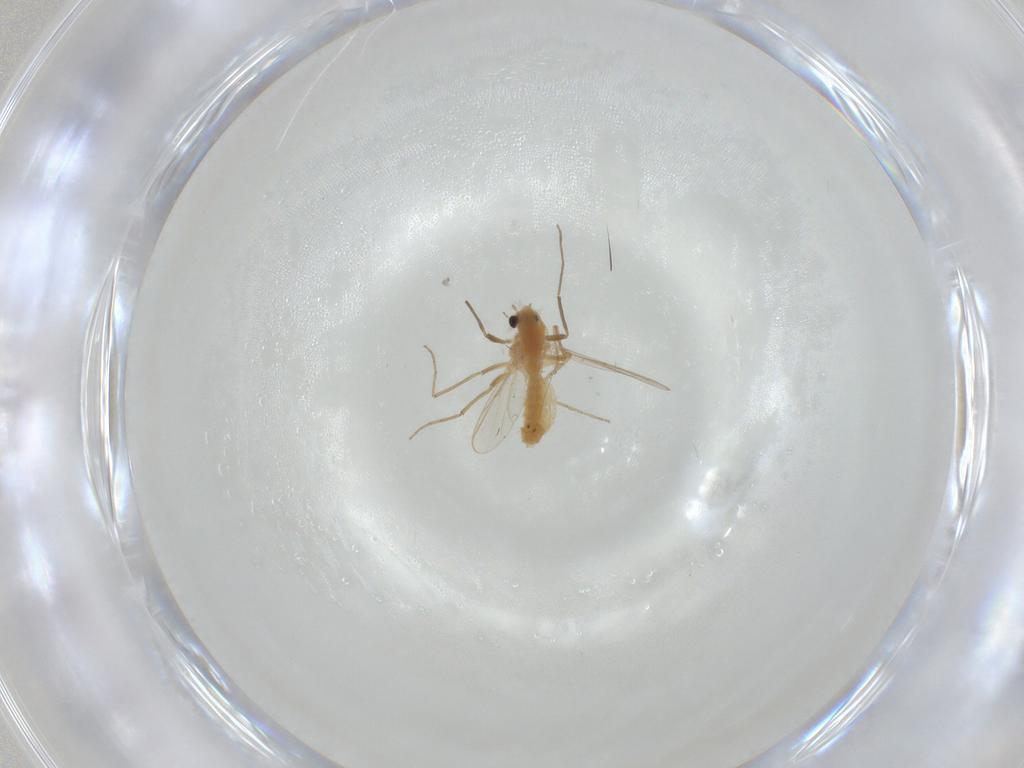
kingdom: Animalia
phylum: Arthropoda
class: Insecta
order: Diptera
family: Chironomidae
